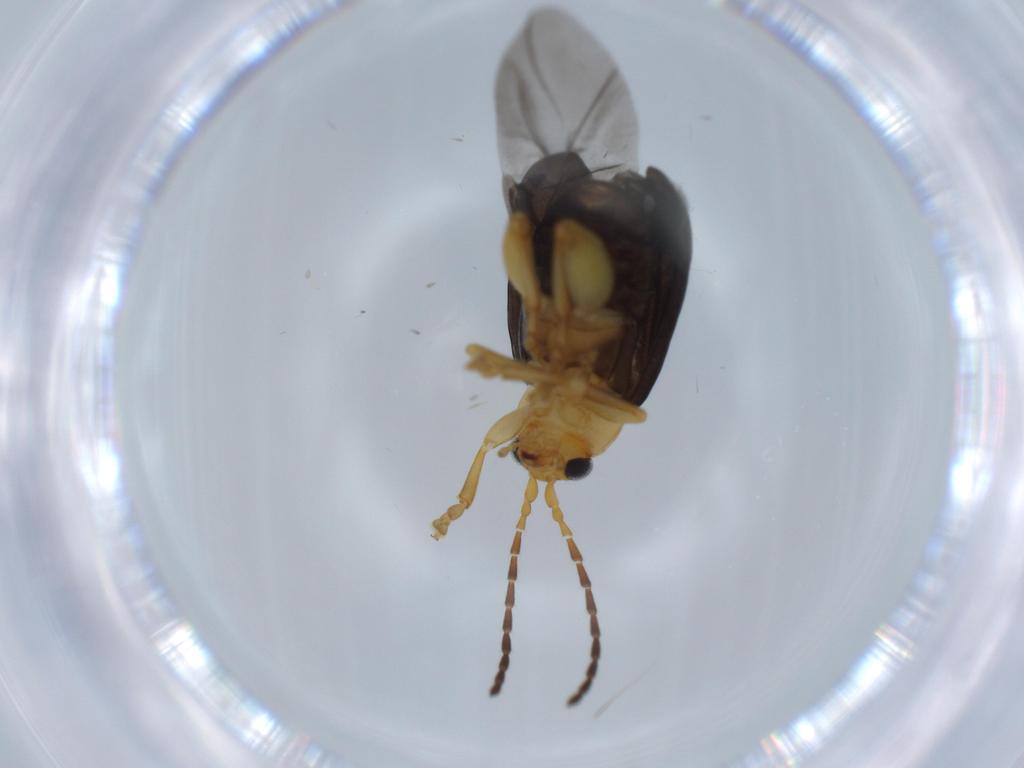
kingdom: Animalia
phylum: Arthropoda
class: Insecta
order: Coleoptera
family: Chrysomelidae
